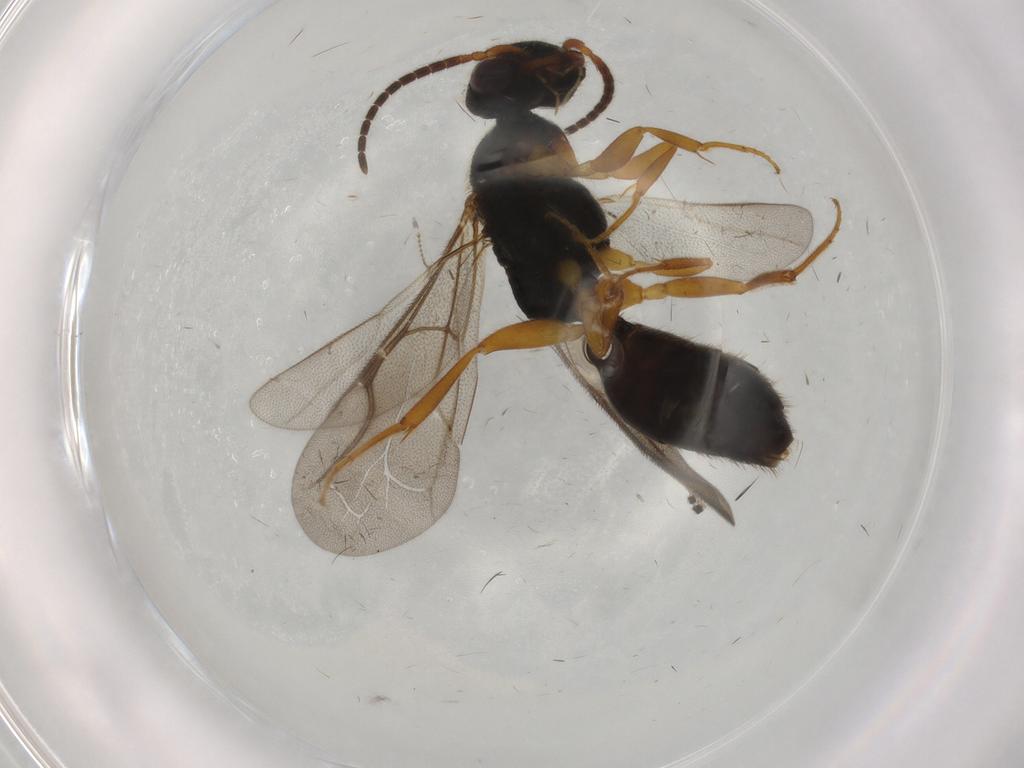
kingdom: Animalia
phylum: Arthropoda
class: Insecta
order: Hymenoptera
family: Bethylidae
